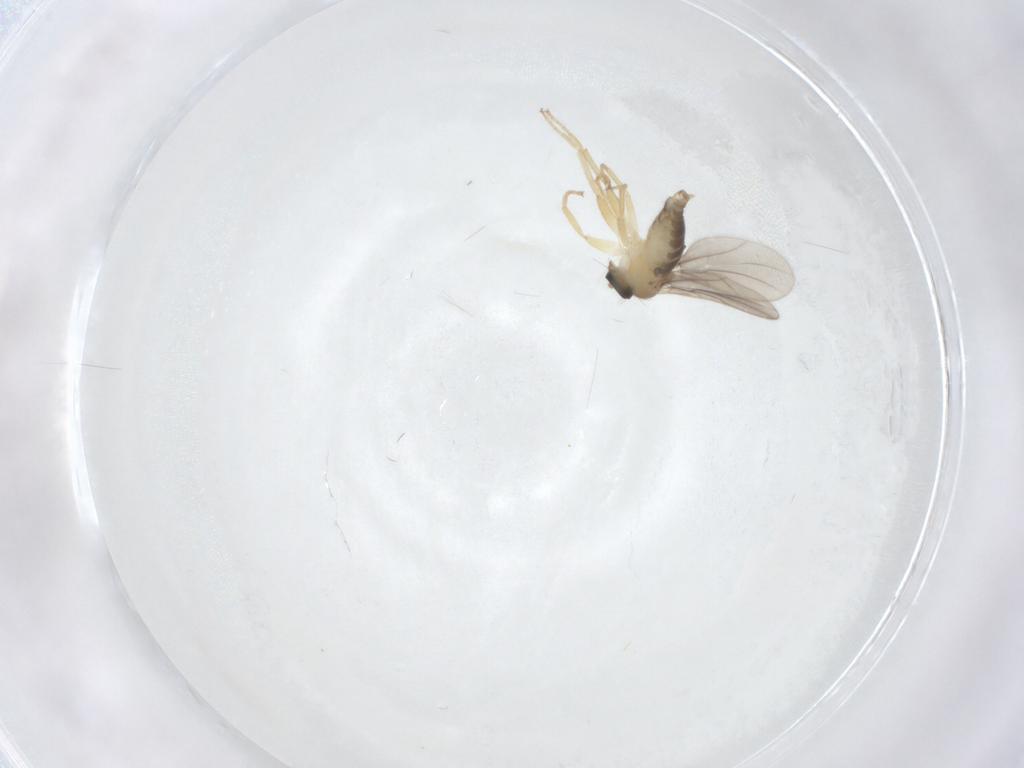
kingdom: Animalia
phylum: Arthropoda
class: Insecta
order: Diptera
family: Hybotidae
